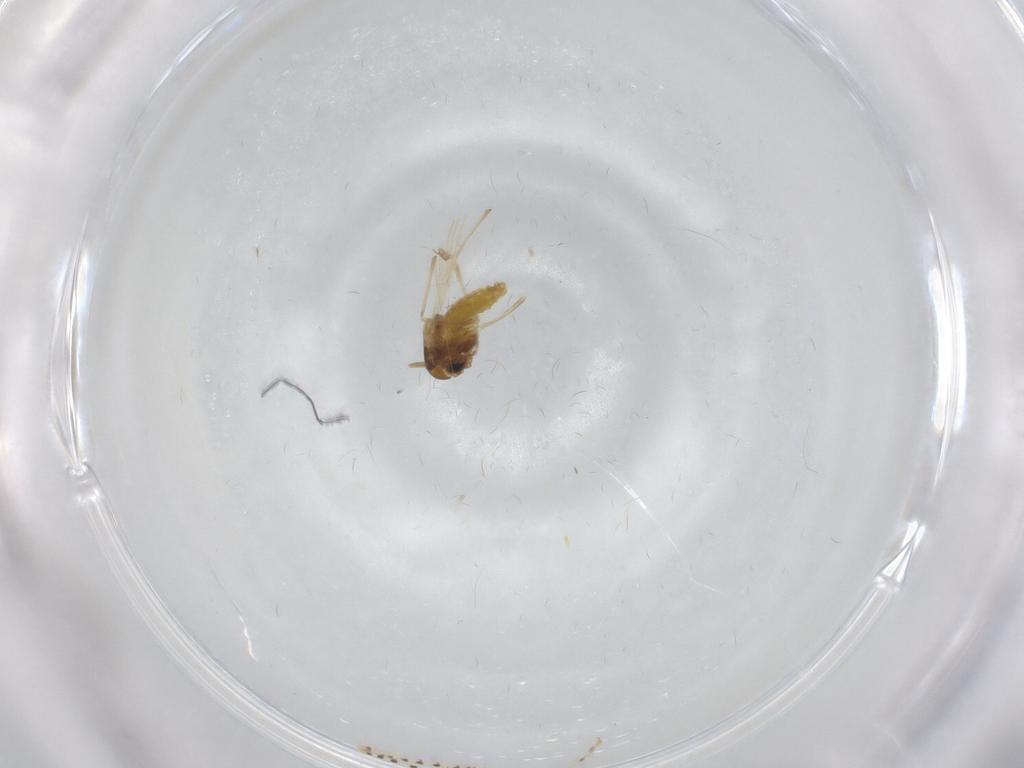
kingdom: Animalia
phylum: Arthropoda
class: Insecta
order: Diptera
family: Chironomidae
